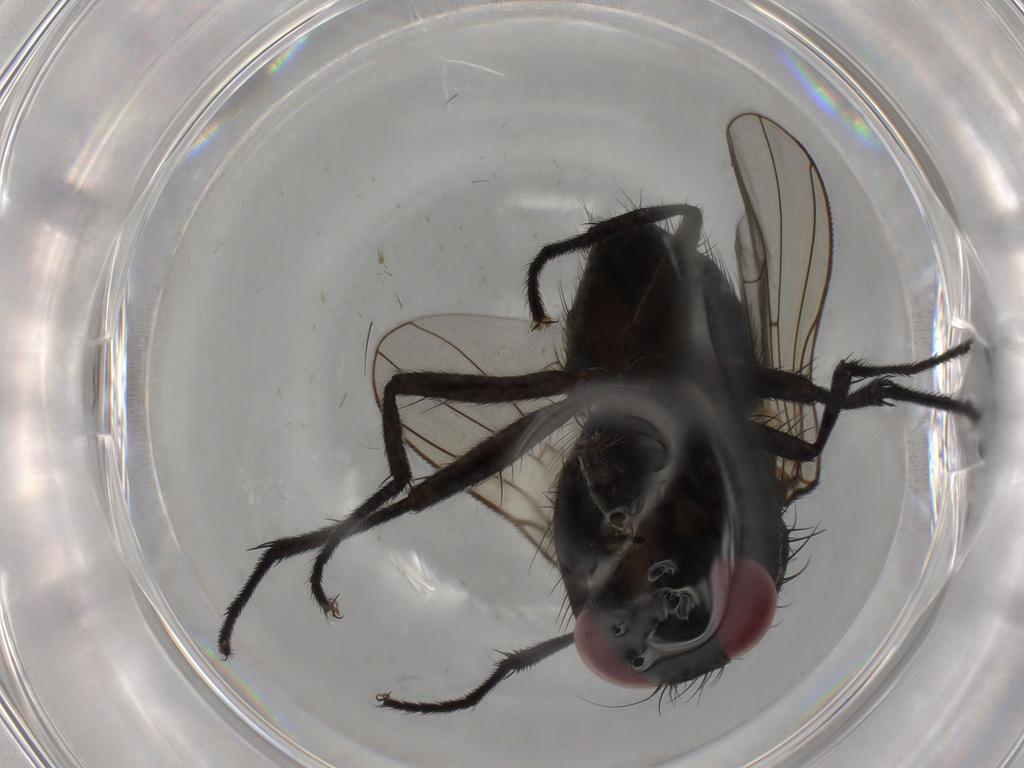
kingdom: Animalia
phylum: Arthropoda
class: Insecta
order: Diptera
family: Muscidae
